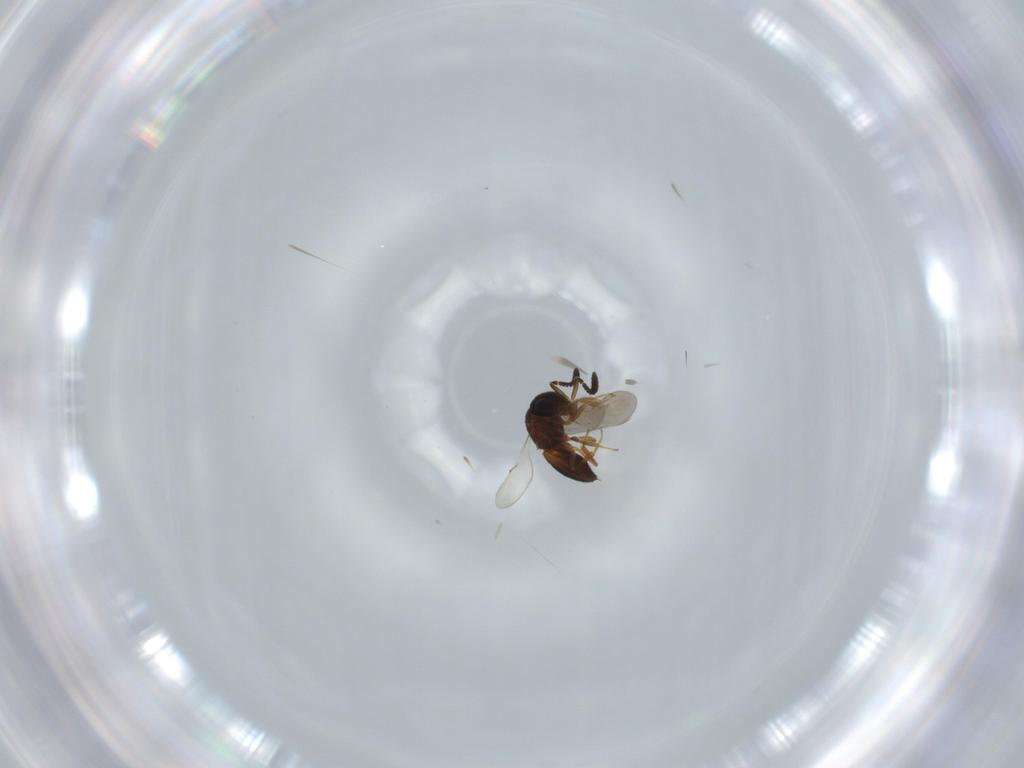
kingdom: Animalia
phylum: Arthropoda
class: Insecta
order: Hymenoptera
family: Scelionidae
